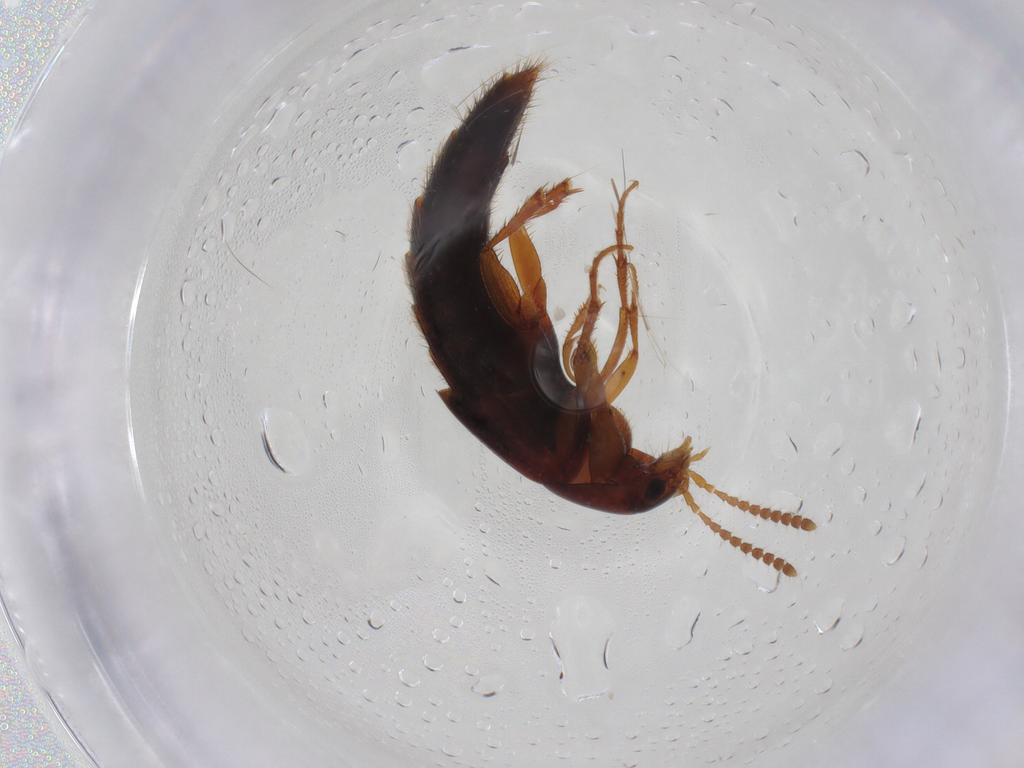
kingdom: Animalia
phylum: Arthropoda
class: Insecta
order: Coleoptera
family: Staphylinidae
